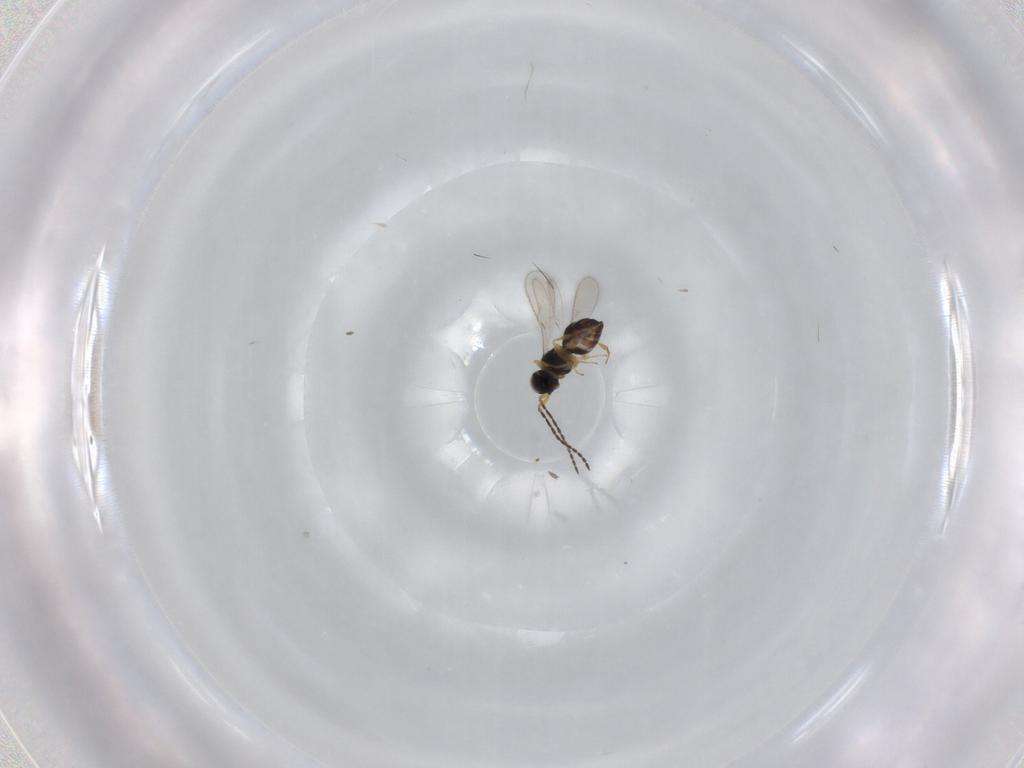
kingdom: Animalia
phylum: Arthropoda
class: Insecta
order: Hymenoptera
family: Scelionidae
